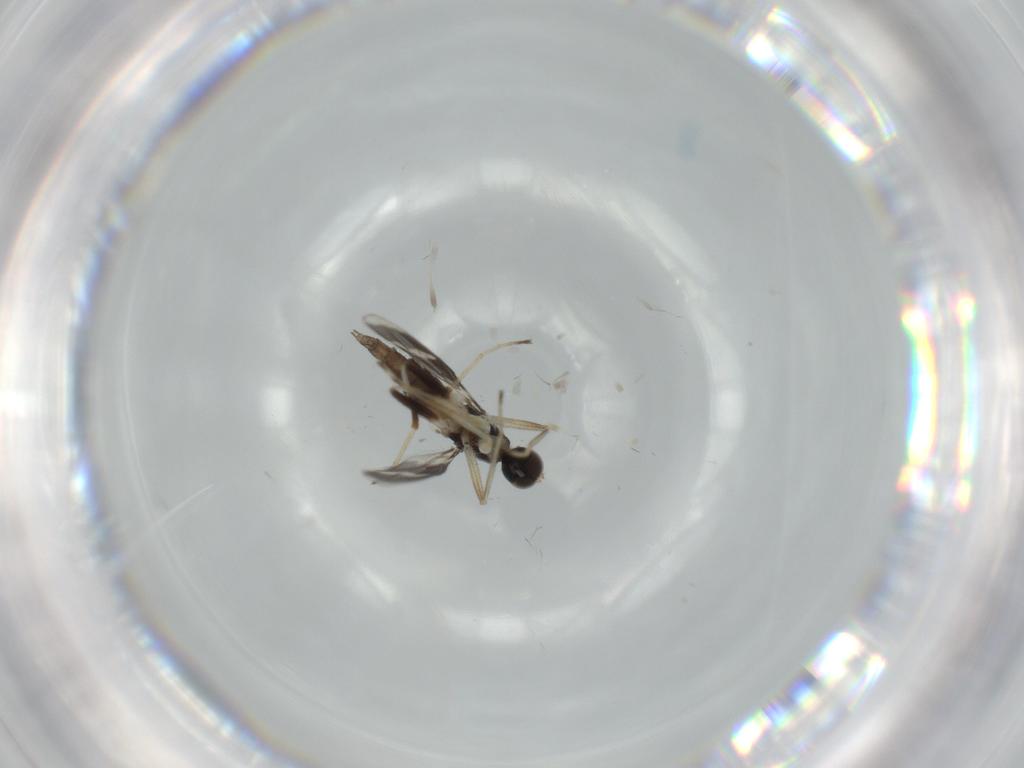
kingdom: Animalia
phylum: Arthropoda
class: Insecta
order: Diptera
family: Hybotidae
